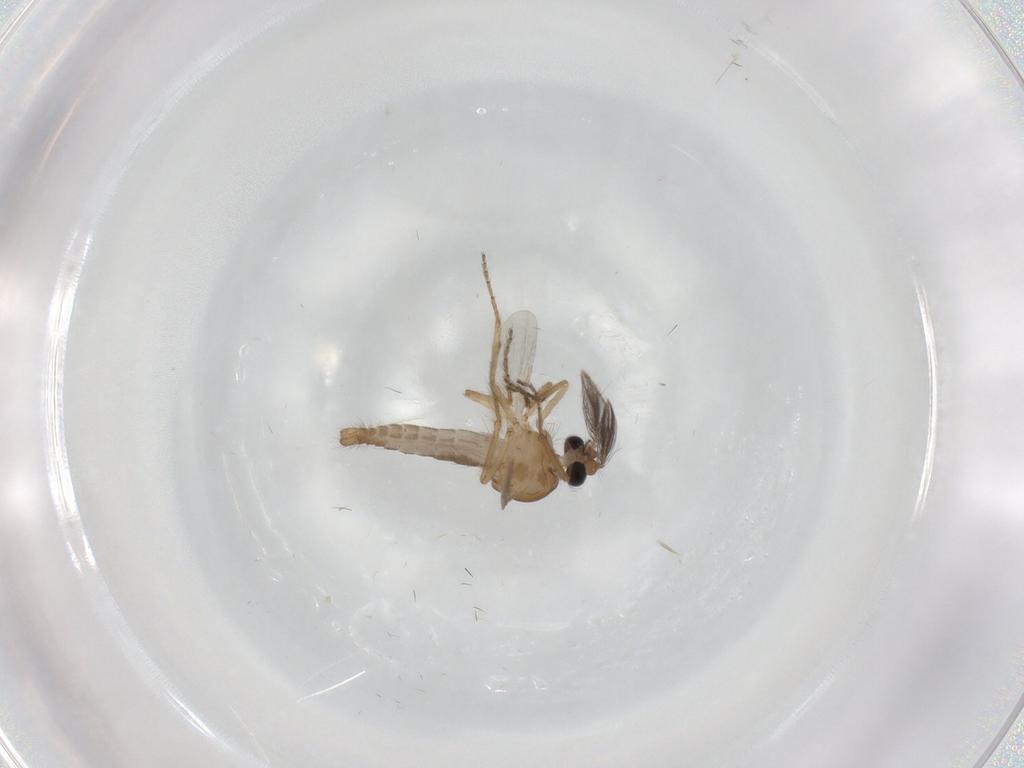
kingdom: Animalia
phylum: Arthropoda
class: Insecta
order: Diptera
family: Ceratopogonidae
